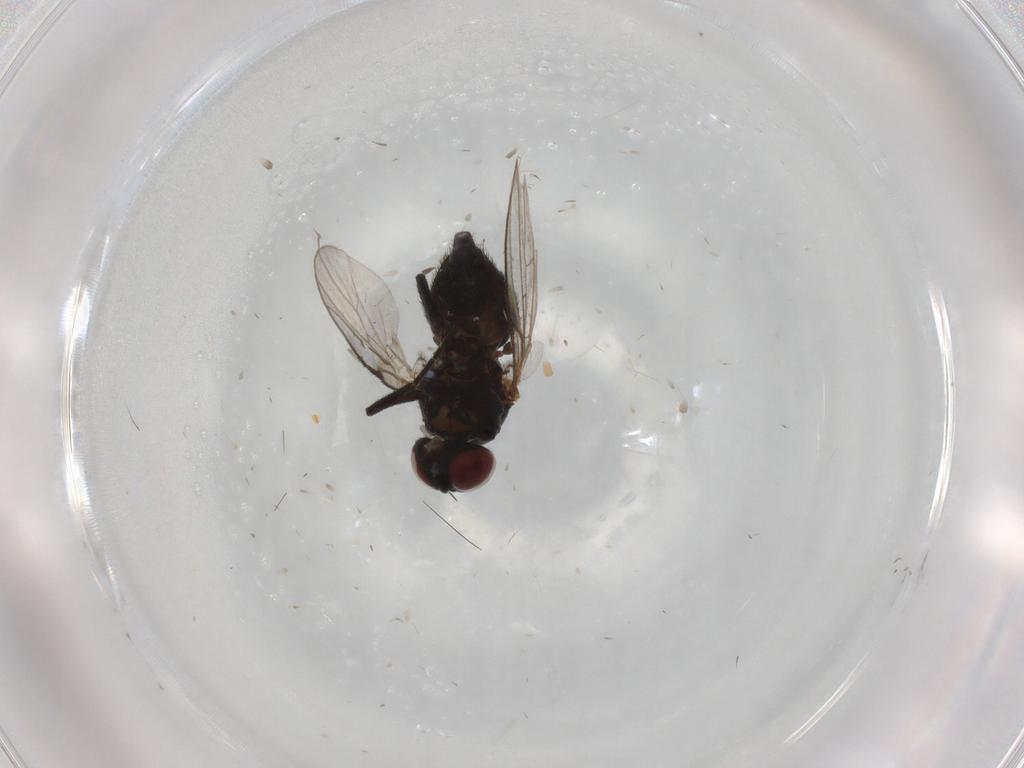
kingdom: Animalia
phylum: Arthropoda
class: Insecta
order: Diptera
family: Agromyzidae
